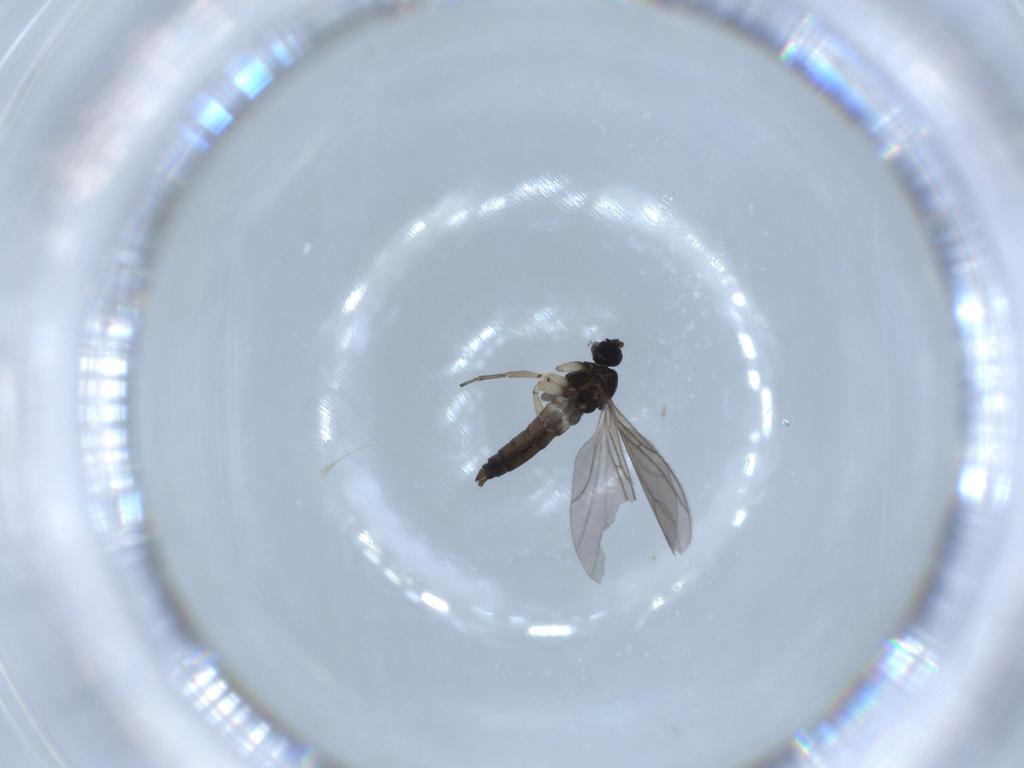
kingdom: Animalia
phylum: Arthropoda
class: Insecta
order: Diptera
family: Sciaridae
